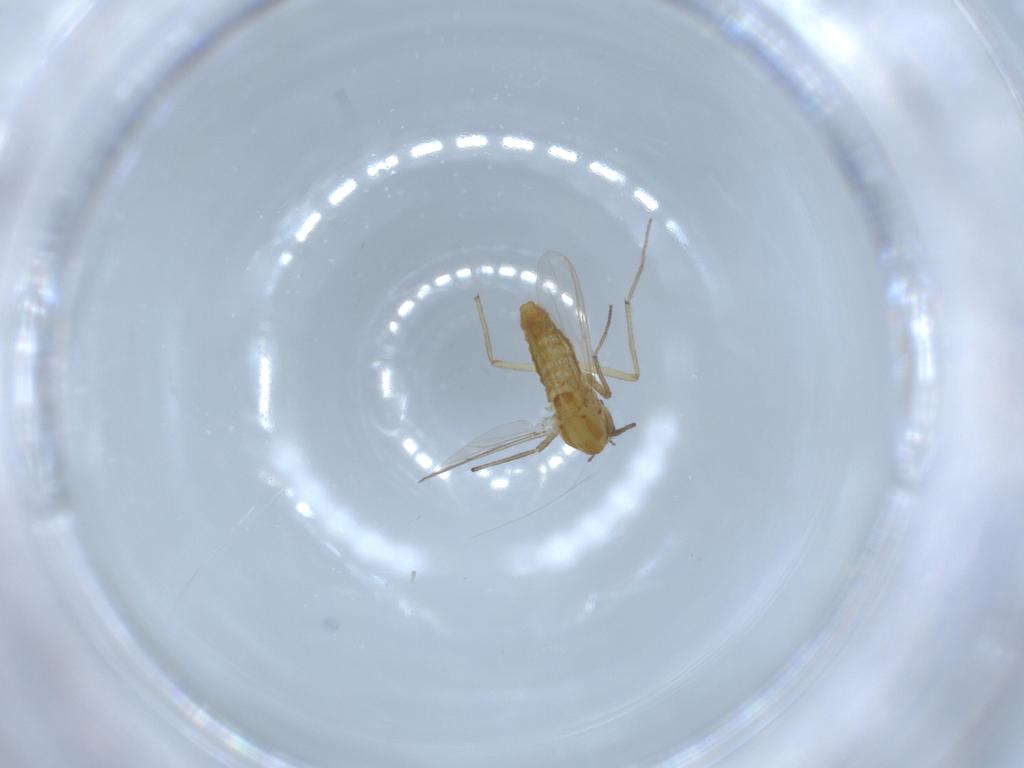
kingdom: Animalia
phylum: Arthropoda
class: Insecta
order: Diptera
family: Chironomidae
